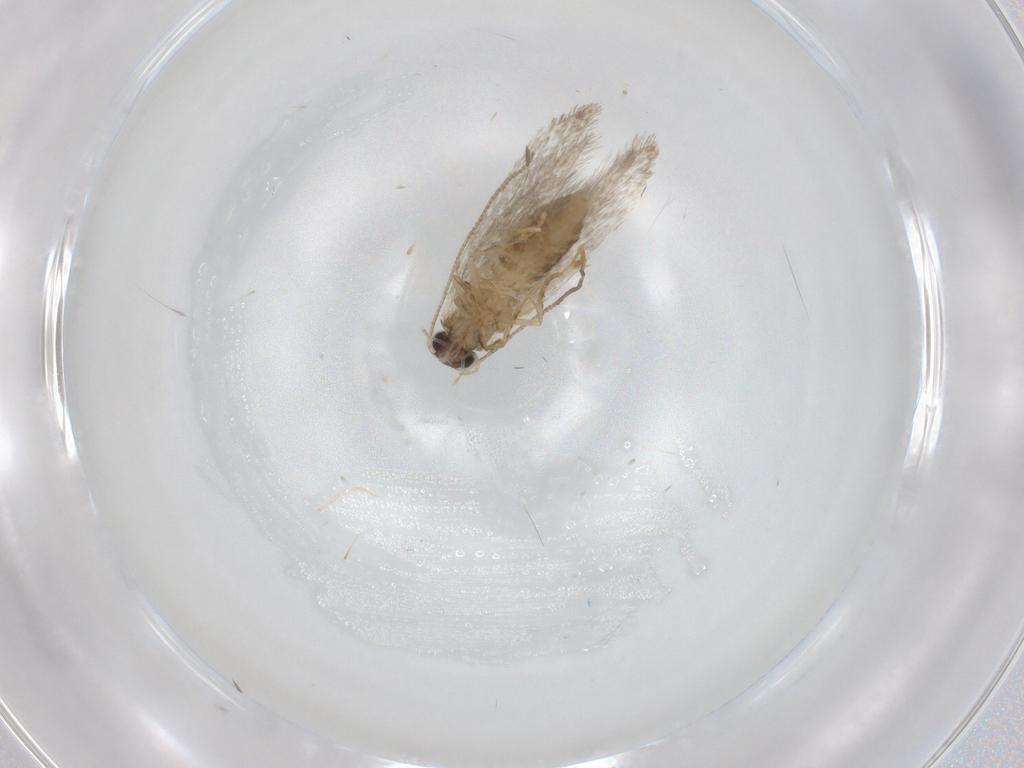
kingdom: Animalia
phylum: Arthropoda
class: Insecta
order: Lepidoptera
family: Tineidae
